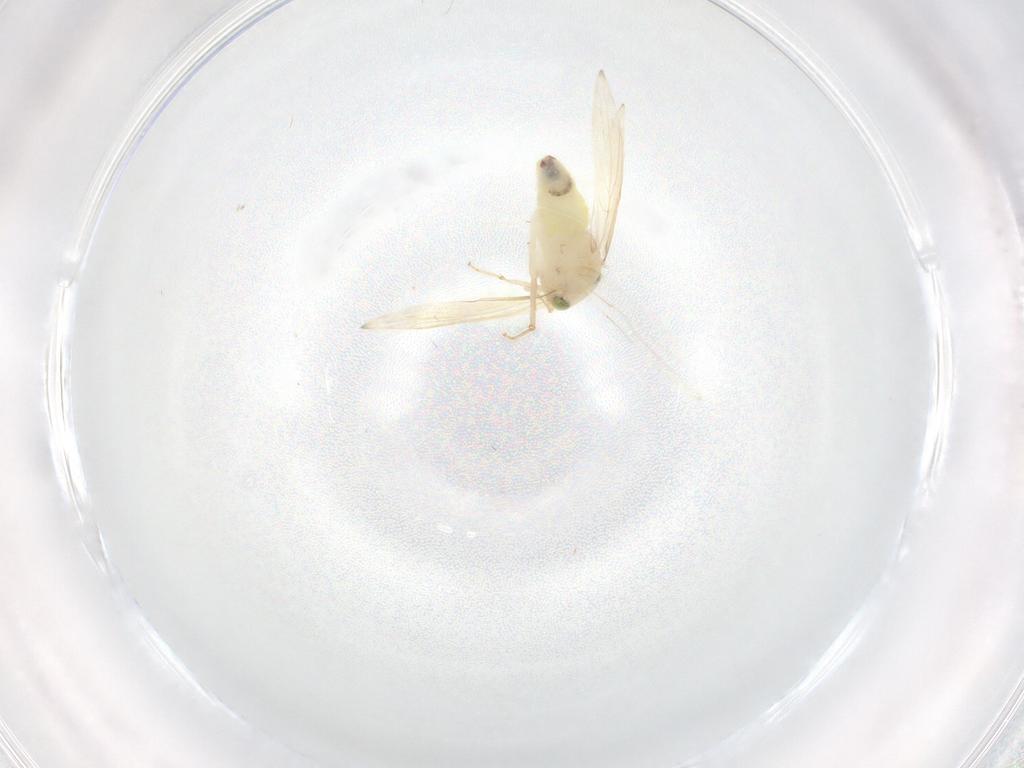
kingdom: Animalia
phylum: Arthropoda
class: Insecta
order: Psocodea
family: Lepidopsocidae
